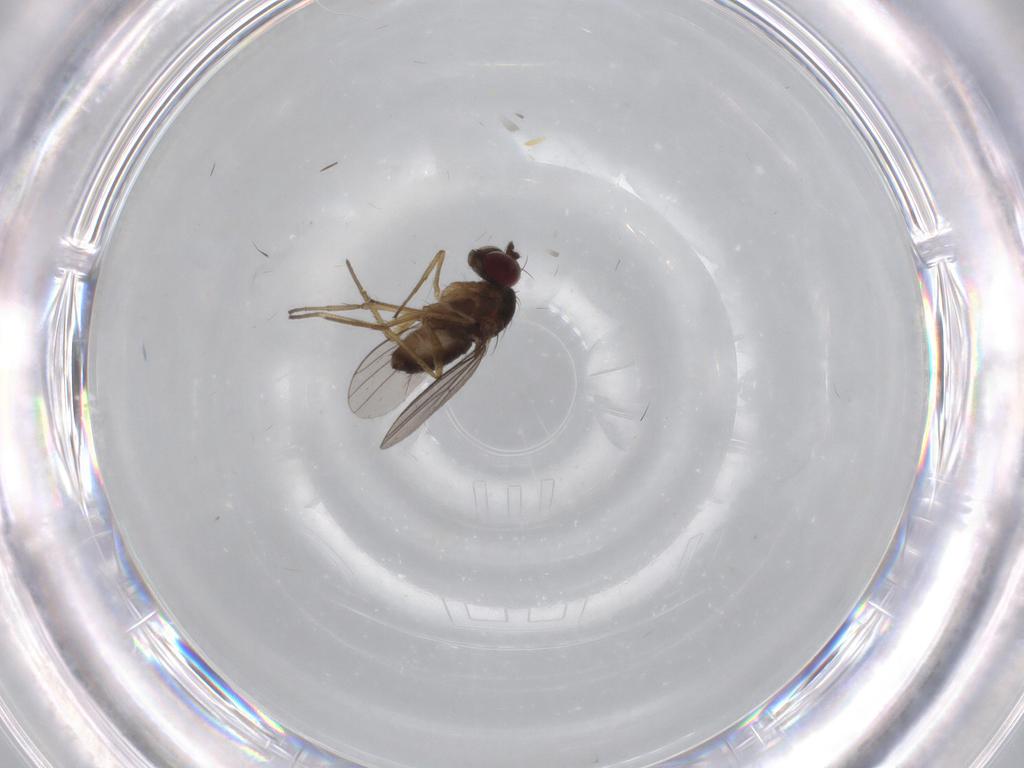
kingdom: Animalia
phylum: Arthropoda
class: Insecta
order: Diptera
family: Dolichopodidae
